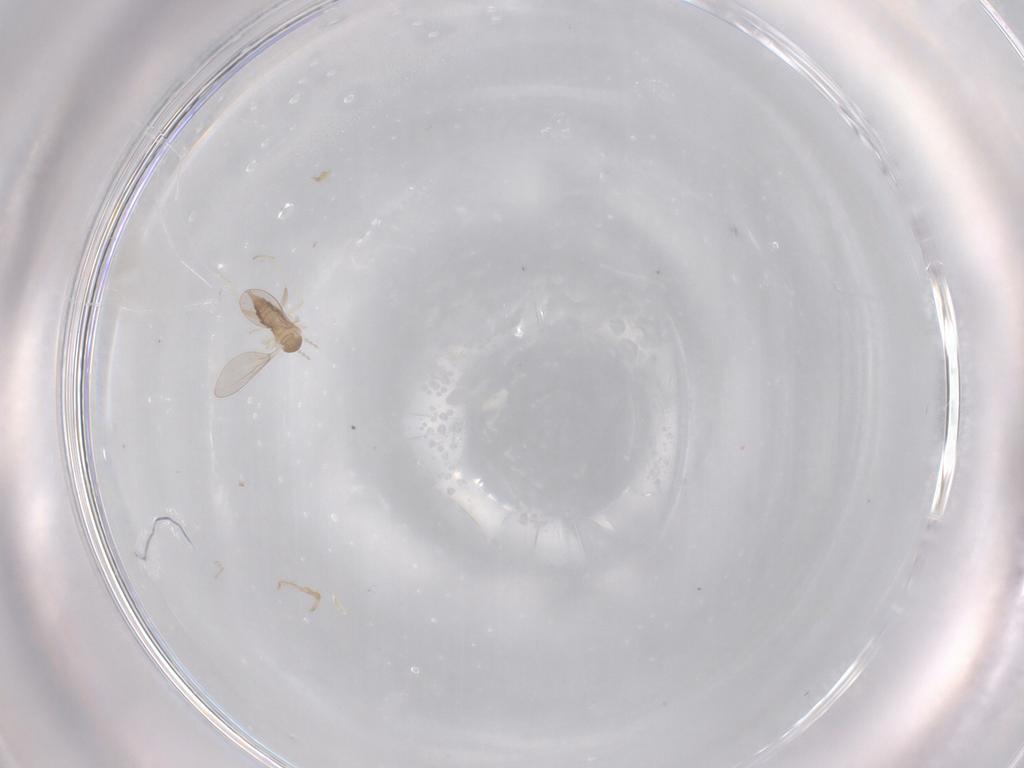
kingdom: Animalia
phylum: Arthropoda
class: Insecta
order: Diptera
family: Cecidomyiidae
